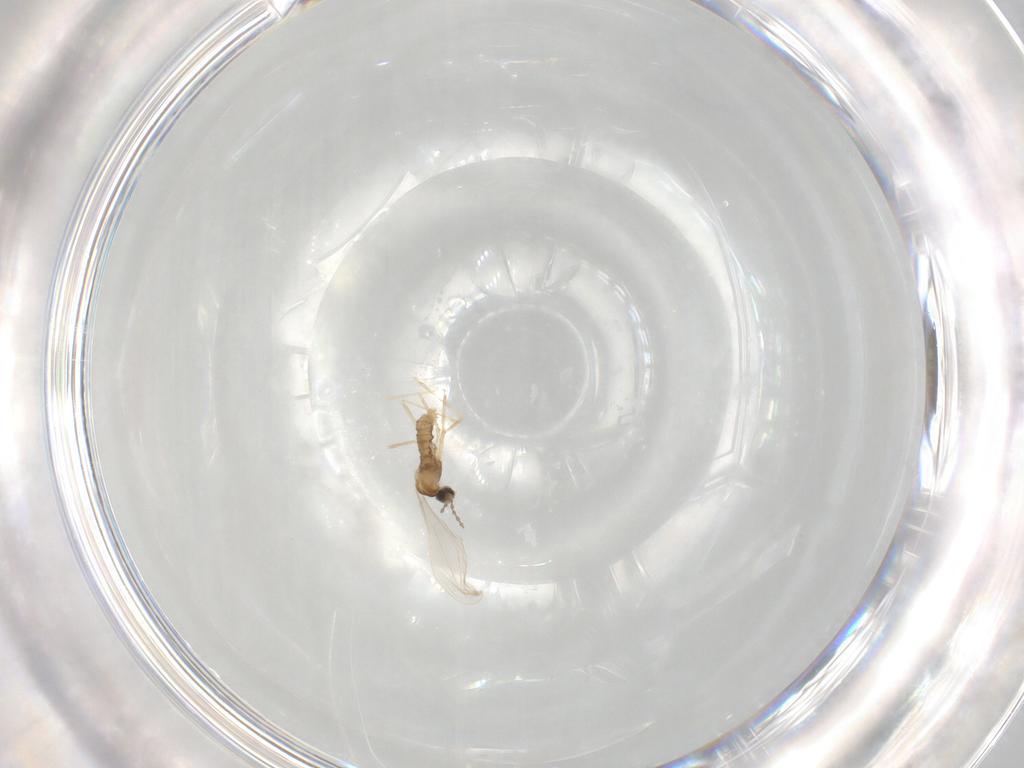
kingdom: Animalia
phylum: Arthropoda
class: Insecta
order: Diptera
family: Cecidomyiidae
